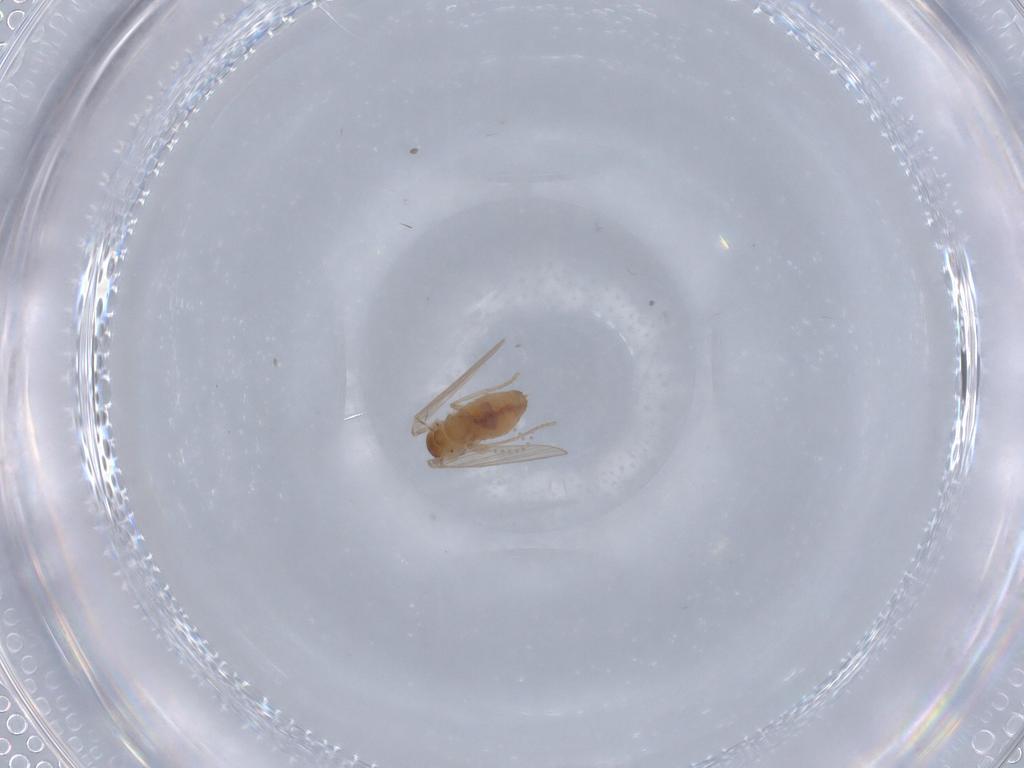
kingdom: Animalia
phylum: Arthropoda
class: Insecta
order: Diptera
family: Psychodidae
